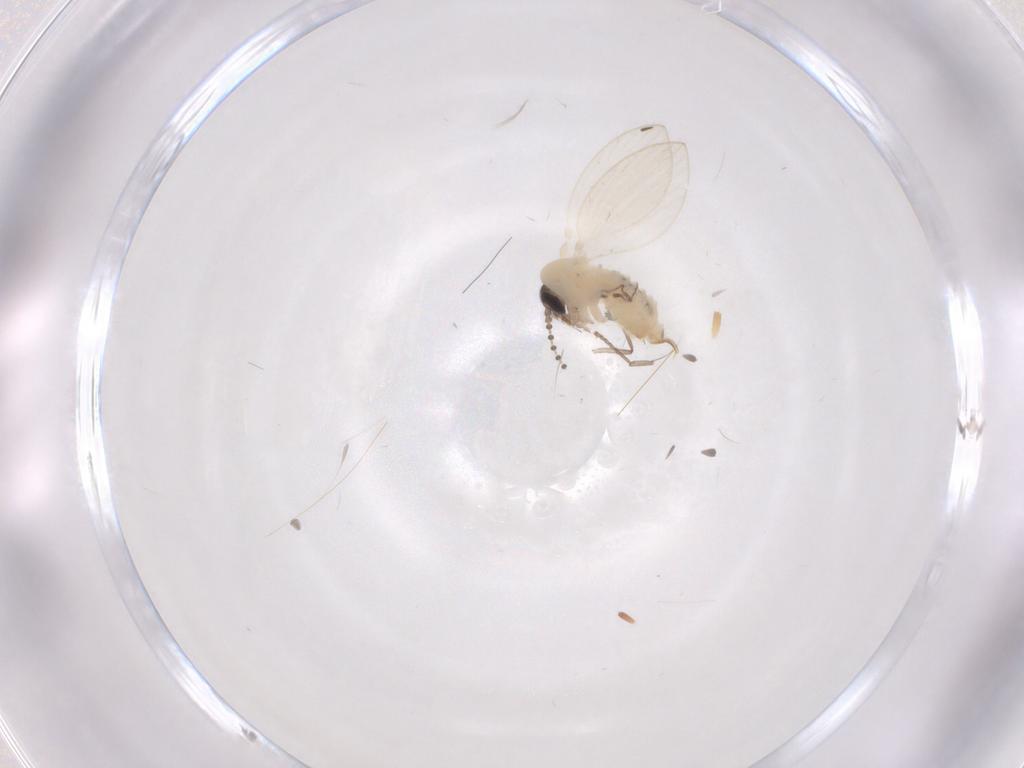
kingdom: Animalia
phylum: Arthropoda
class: Insecta
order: Diptera
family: Psychodidae
